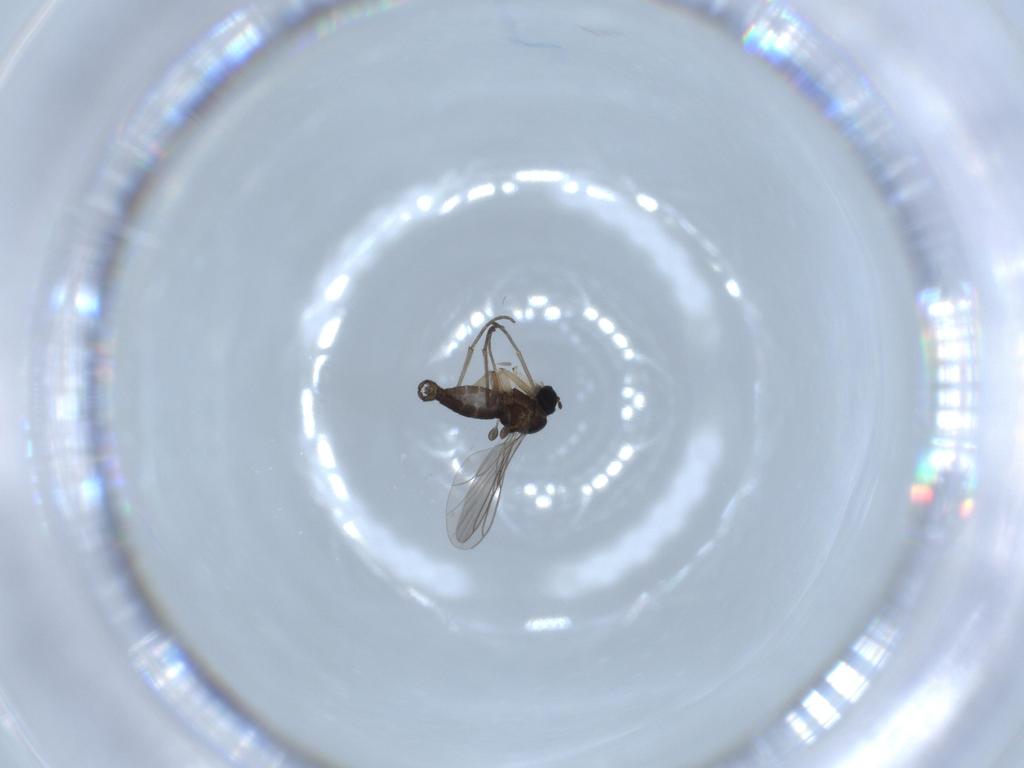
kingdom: Animalia
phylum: Arthropoda
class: Insecta
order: Diptera
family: Sciaridae
